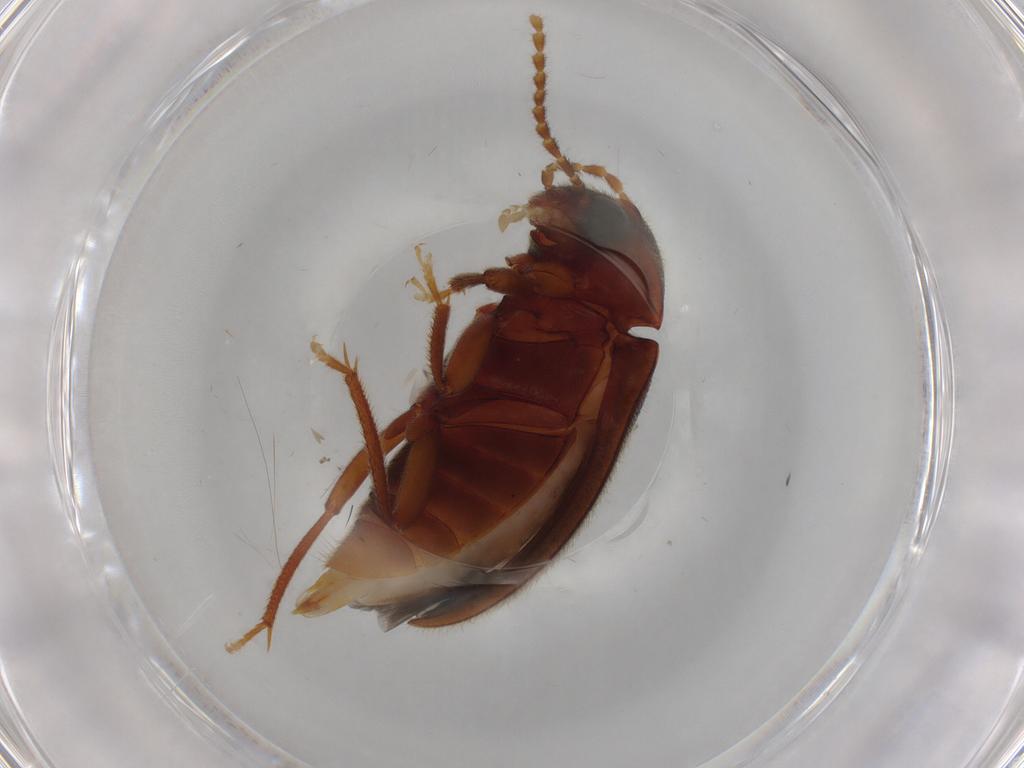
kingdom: Animalia
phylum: Arthropoda
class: Insecta
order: Coleoptera
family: Ptilodactylidae
